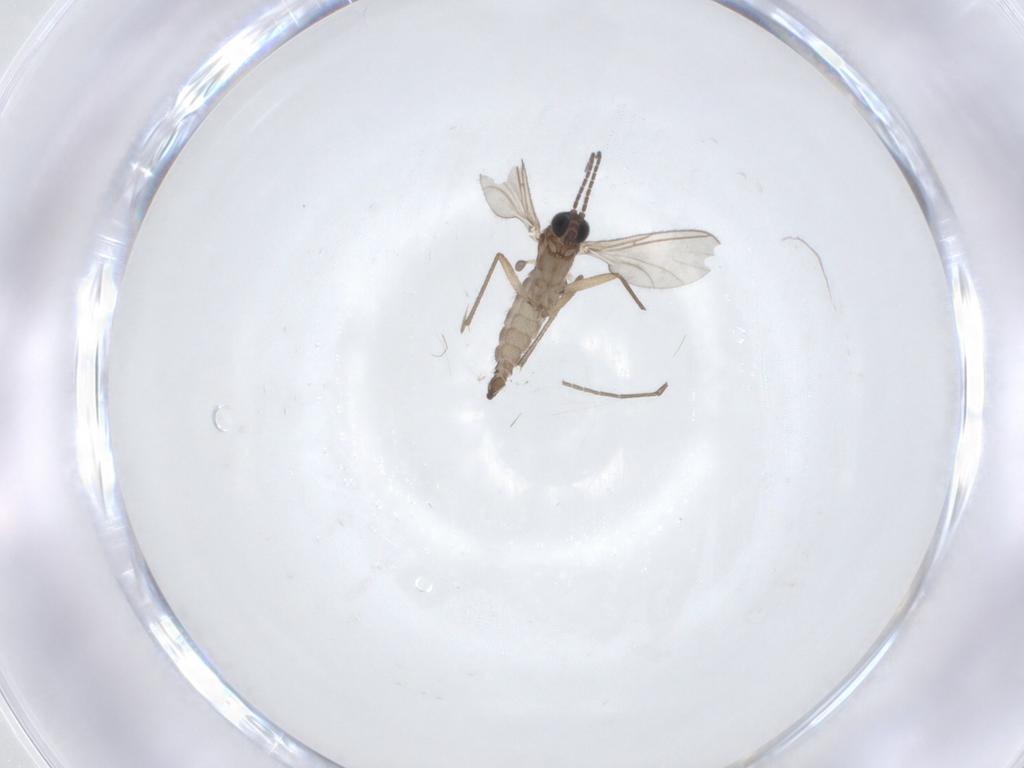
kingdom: Animalia
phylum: Arthropoda
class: Insecta
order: Diptera
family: Sciaridae
